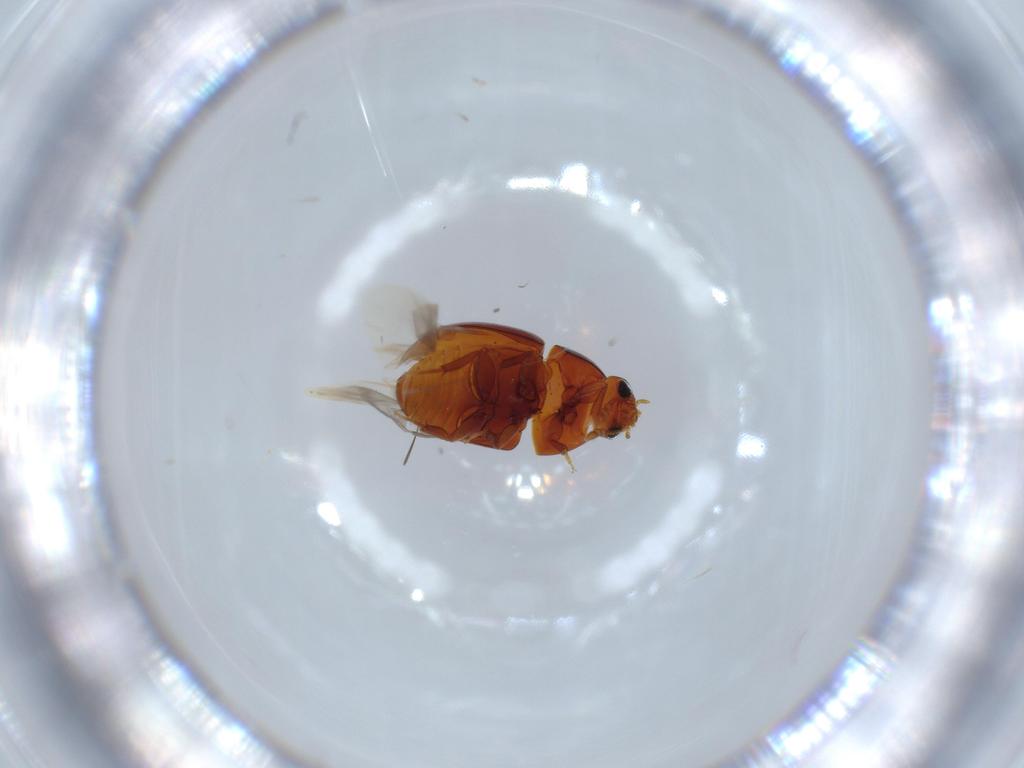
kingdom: Animalia
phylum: Arthropoda
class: Insecta
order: Coleoptera
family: Phalacridae
